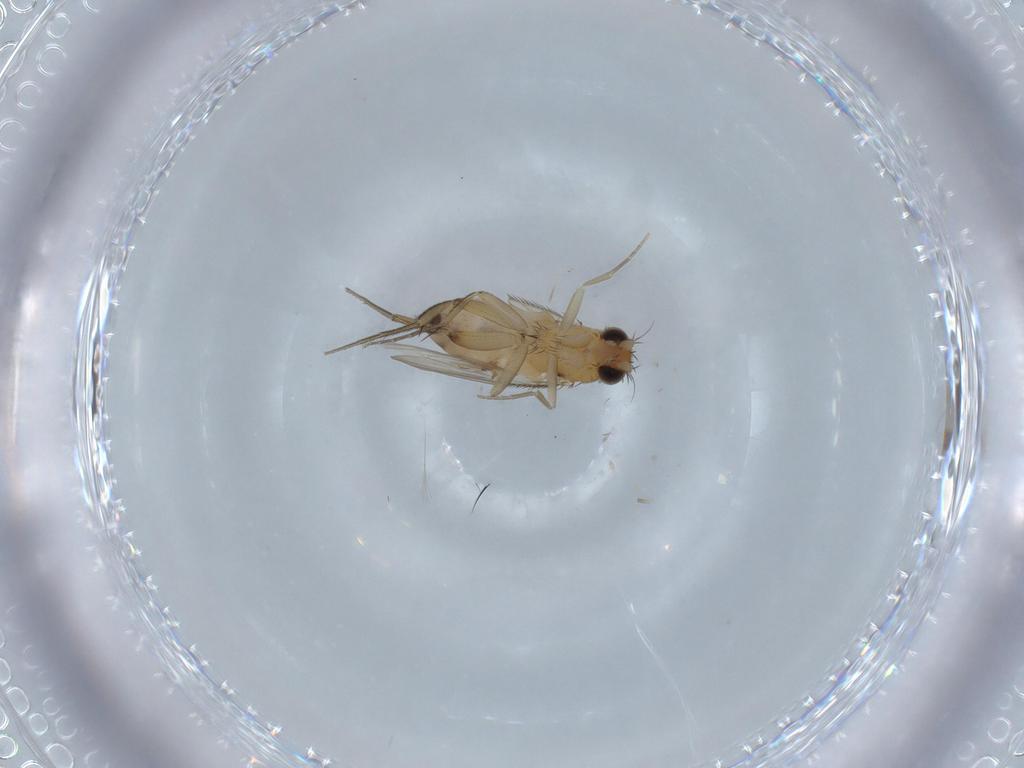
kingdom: Animalia
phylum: Arthropoda
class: Insecta
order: Diptera
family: Phoridae
